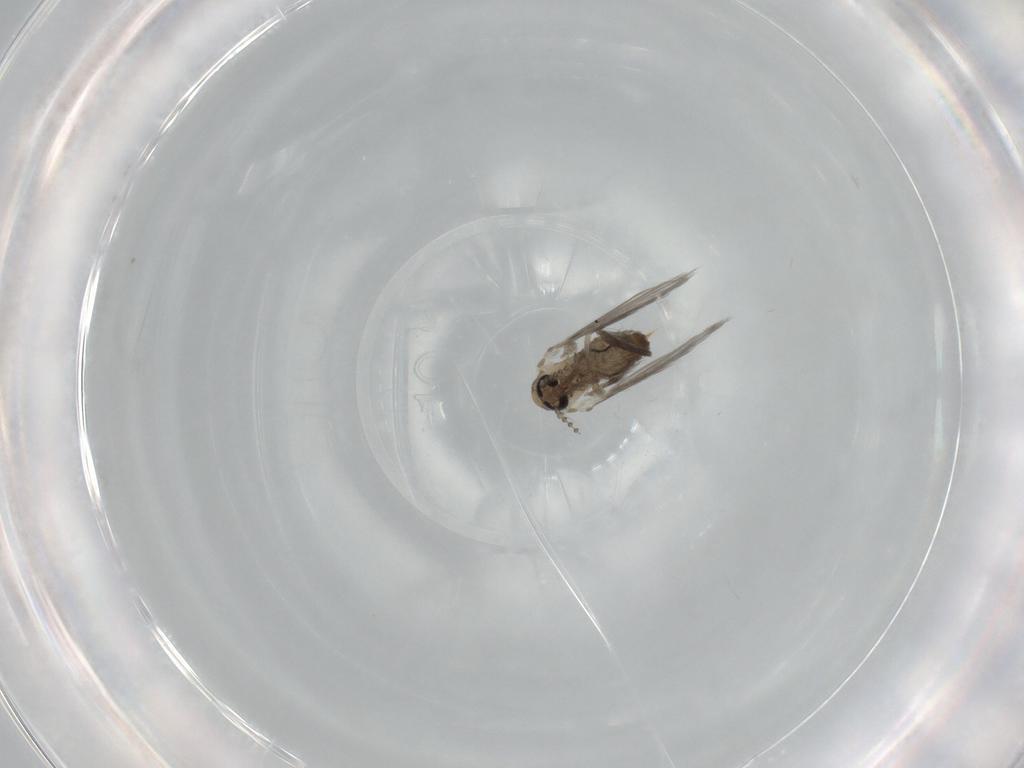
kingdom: Animalia
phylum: Arthropoda
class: Insecta
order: Diptera
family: Psychodidae
